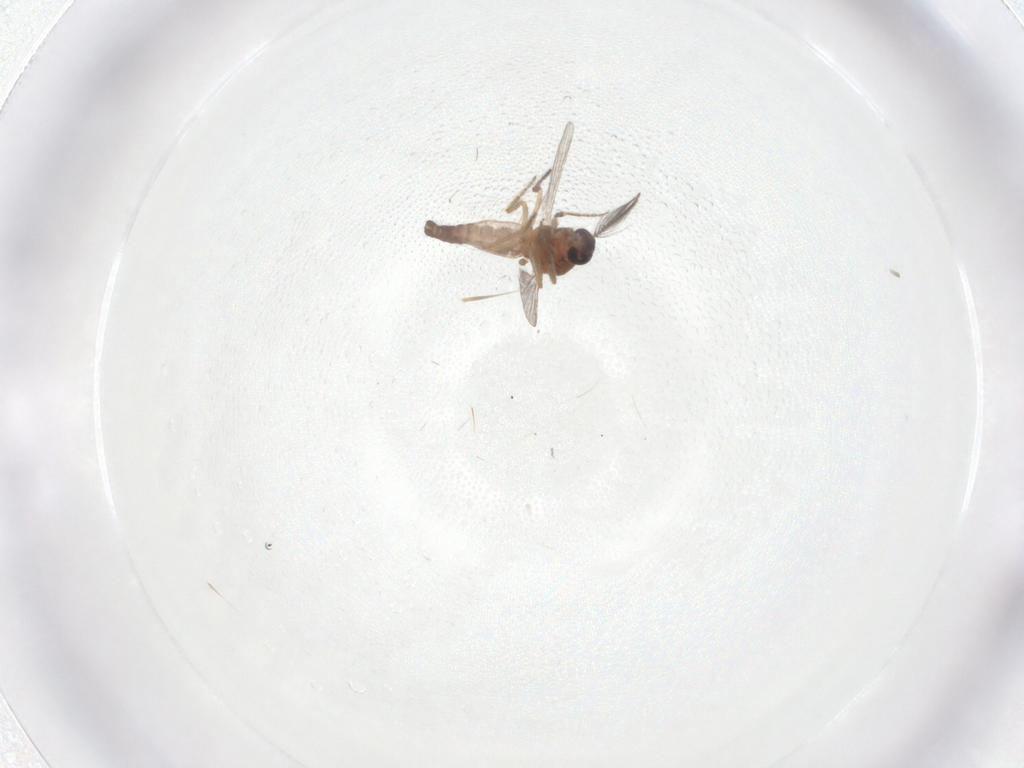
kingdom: Animalia
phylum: Arthropoda
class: Insecta
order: Diptera
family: Ceratopogonidae
